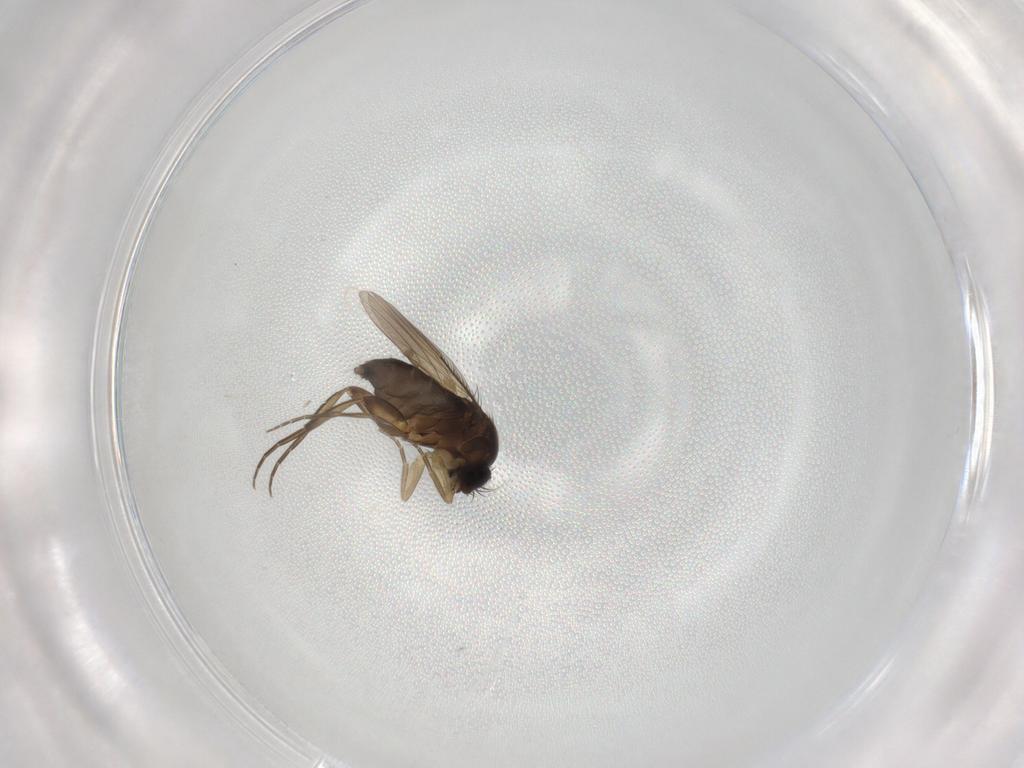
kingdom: Animalia
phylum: Arthropoda
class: Insecta
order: Diptera
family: Phoridae
